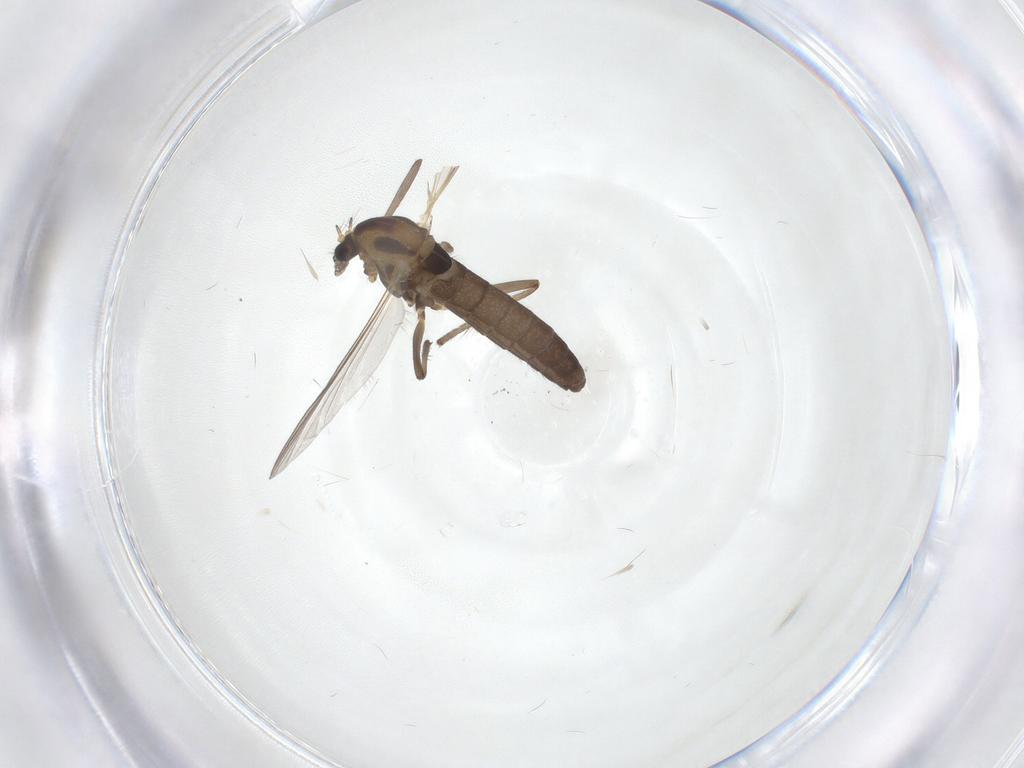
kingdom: Animalia
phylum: Arthropoda
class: Insecta
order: Diptera
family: Chironomidae
